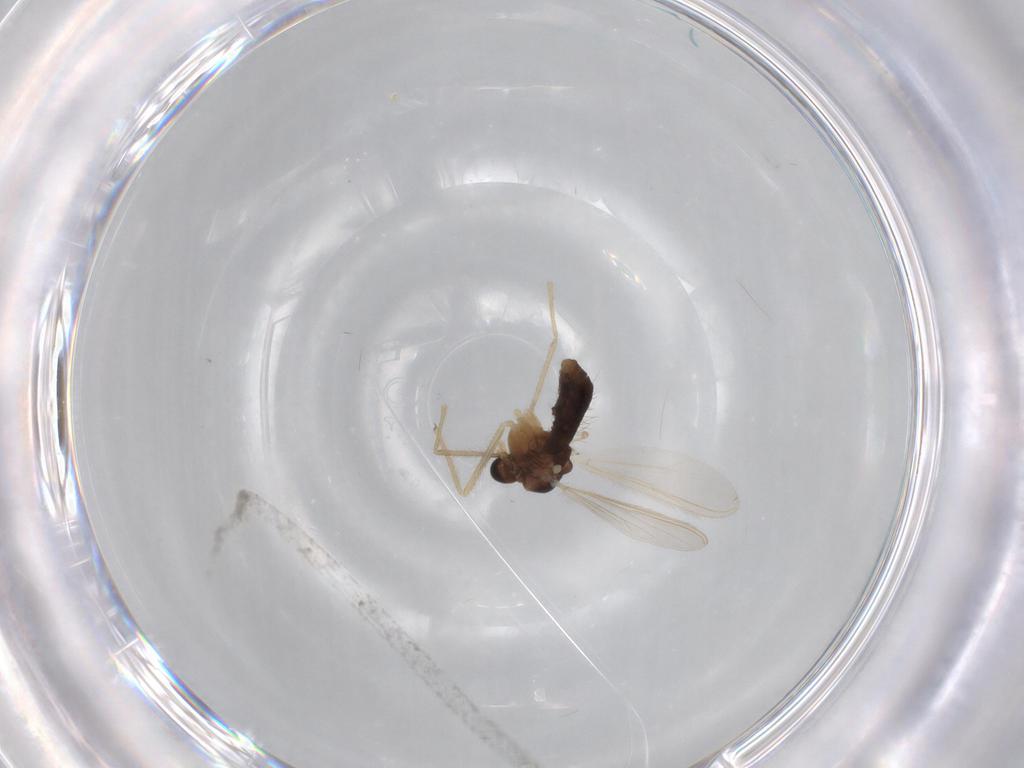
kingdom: Animalia
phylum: Arthropoda
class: Insecta
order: Diptera
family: Chironomidae
